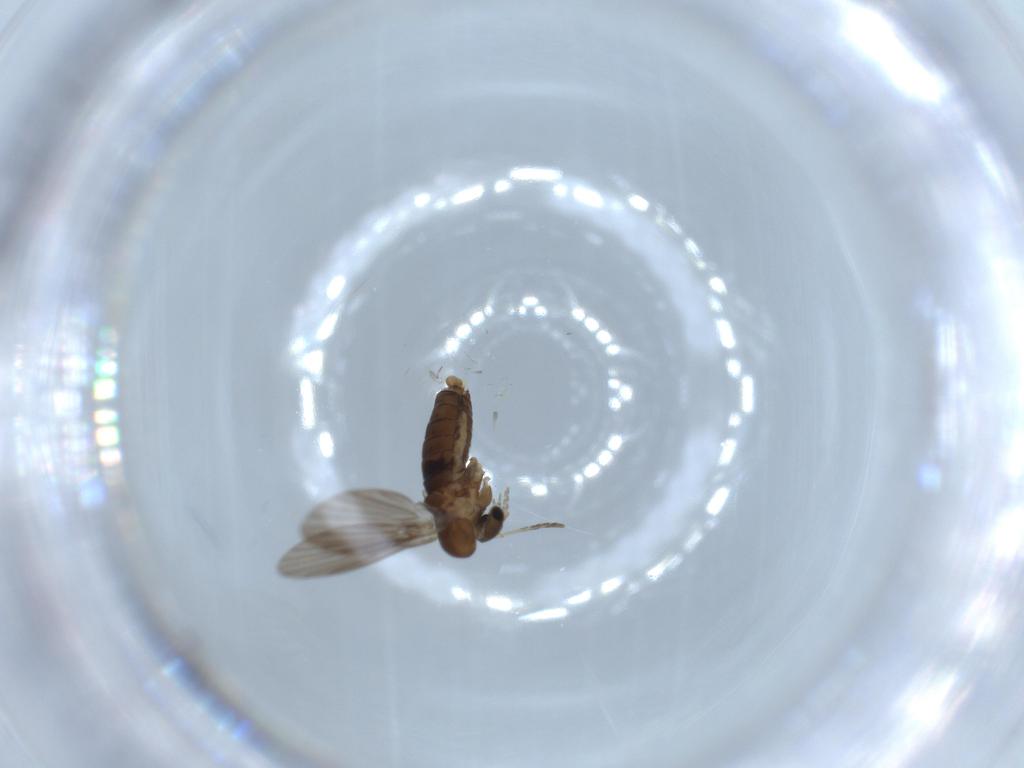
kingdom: Animalia
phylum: Arthropoda
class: Insecta
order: Diptera
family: Psychodidae
